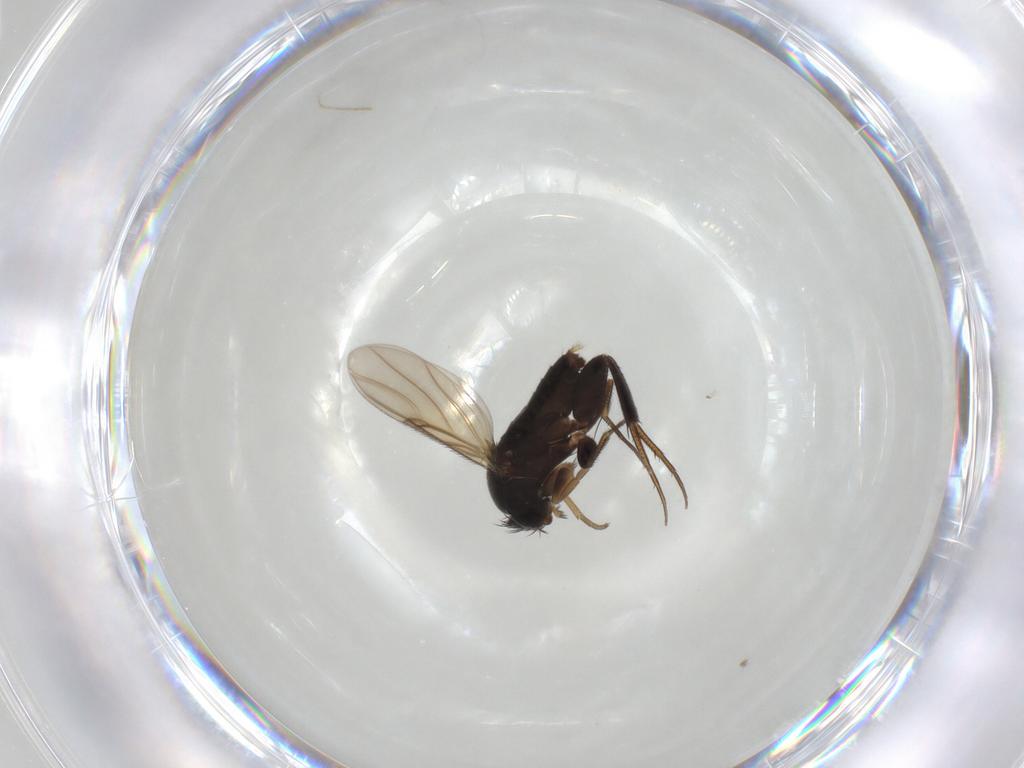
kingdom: Animalia
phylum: Arthropoda
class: Insecta
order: Diptera
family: Phoridae
